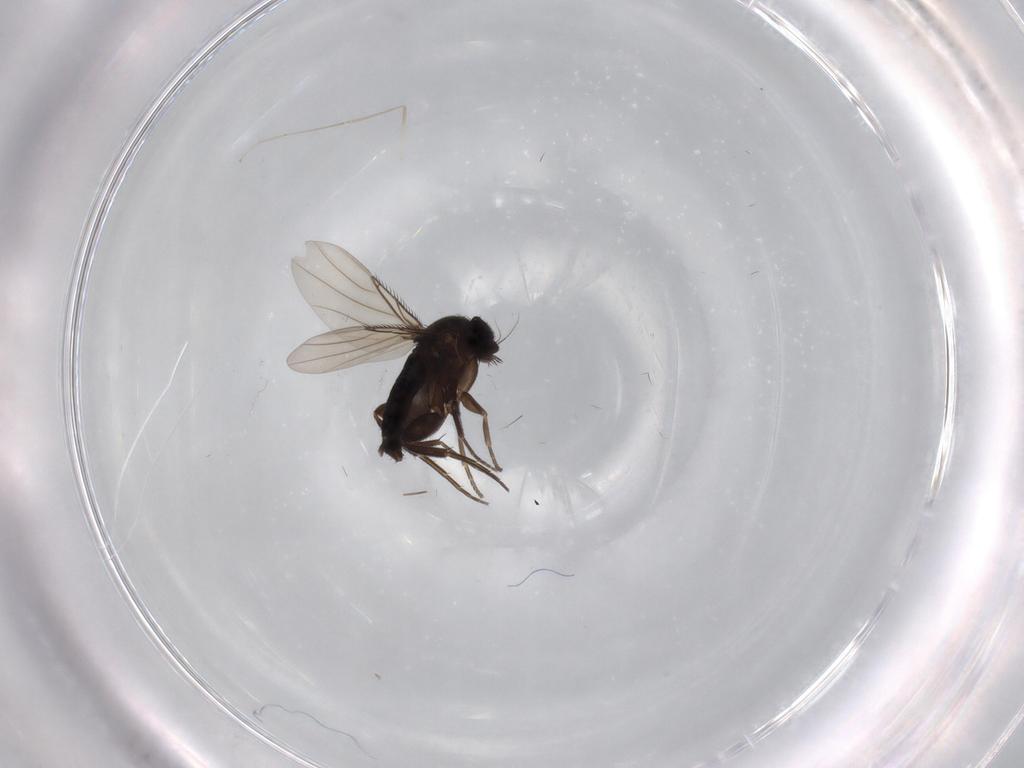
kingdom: Animalia
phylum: Arthropoda
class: Insecta
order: Diptera
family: Phoridae
